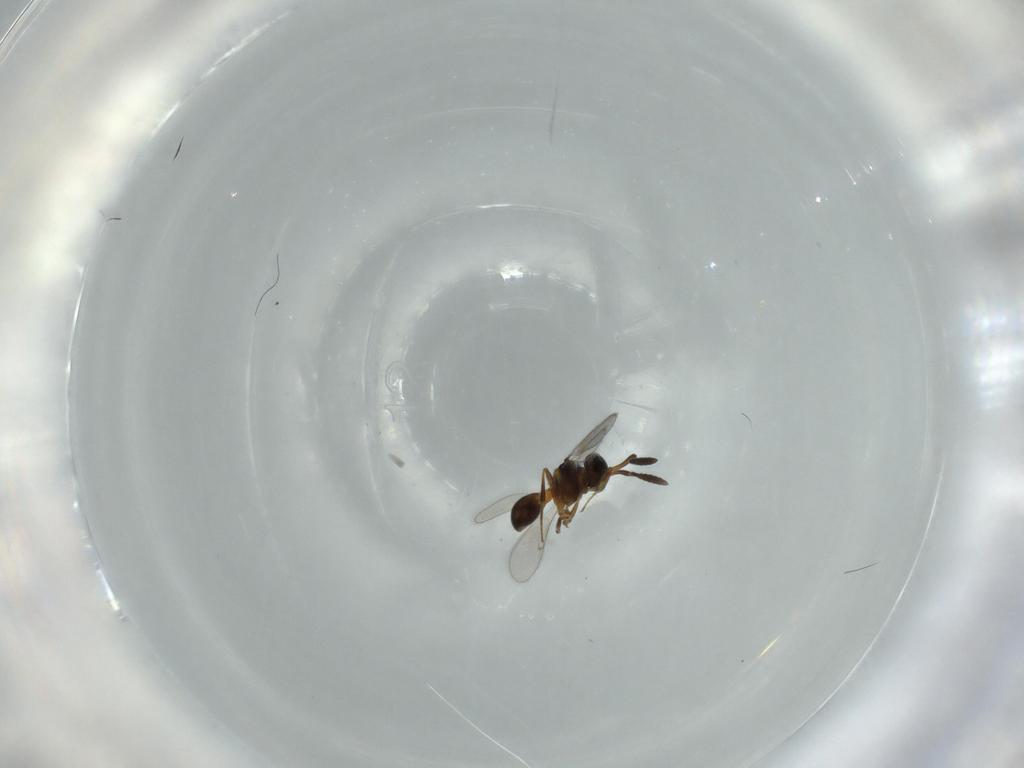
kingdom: Animalia
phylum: Arthropoda
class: Insecta
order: Hymenoptera
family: Scelionidae
